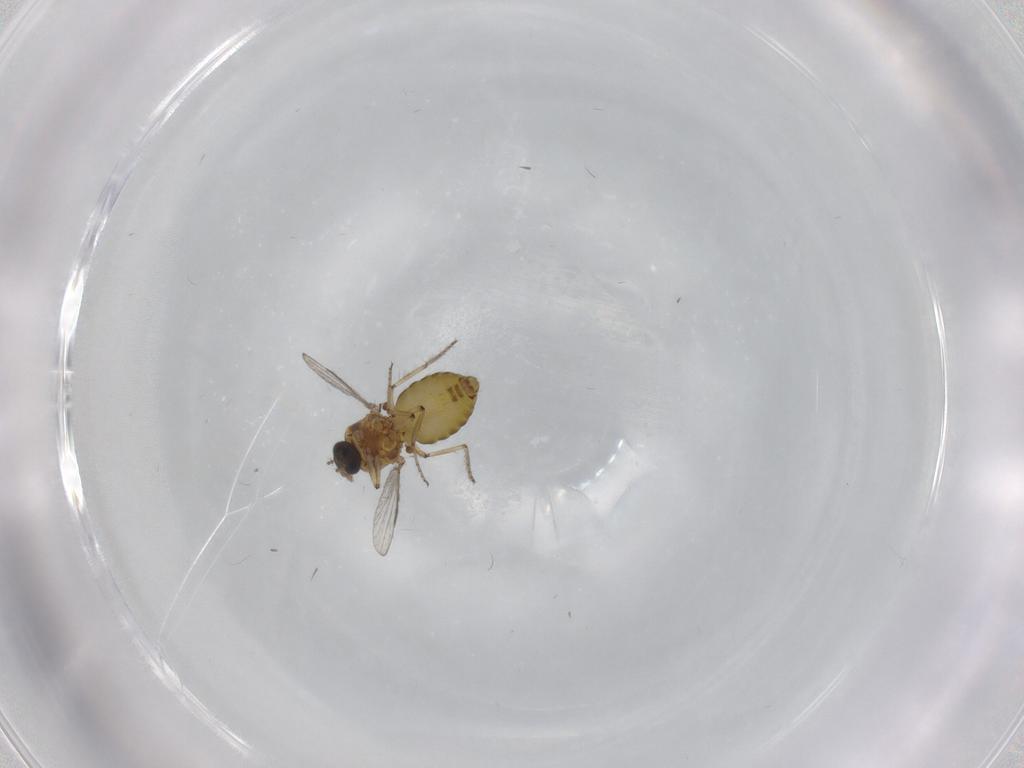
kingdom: Animalia
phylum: Arthropoda
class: Insecta
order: Diptera
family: Ceratopogonidae
